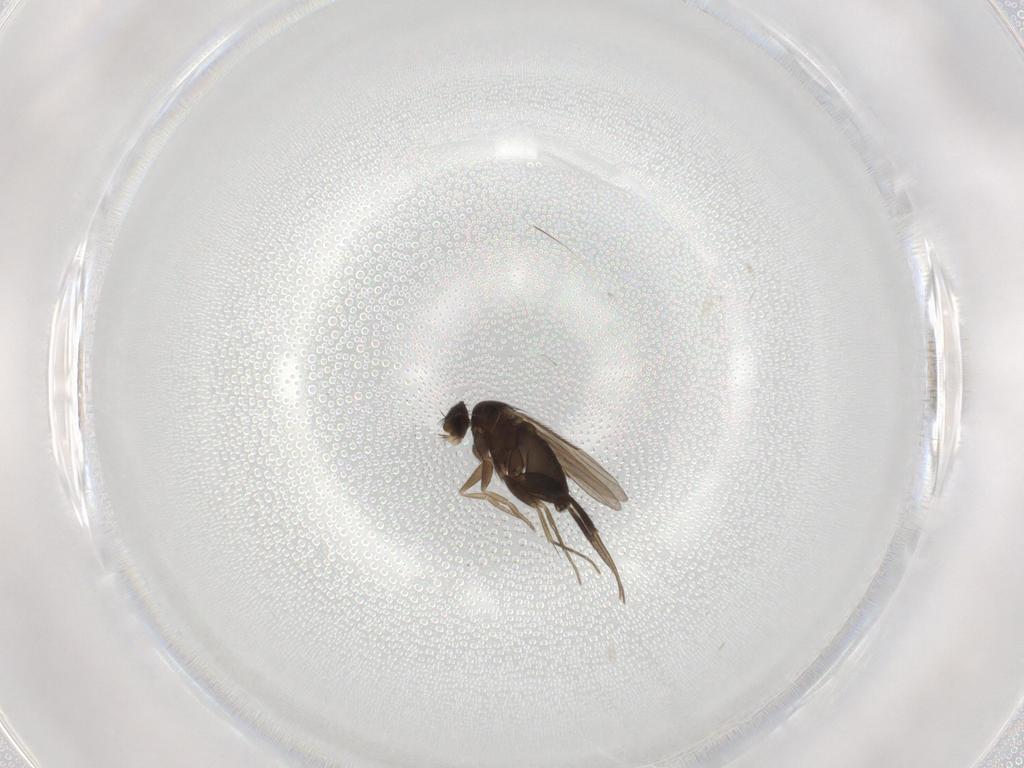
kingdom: Animalia
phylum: Arthropoda
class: Insecta
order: Diptera
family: Phoridae
